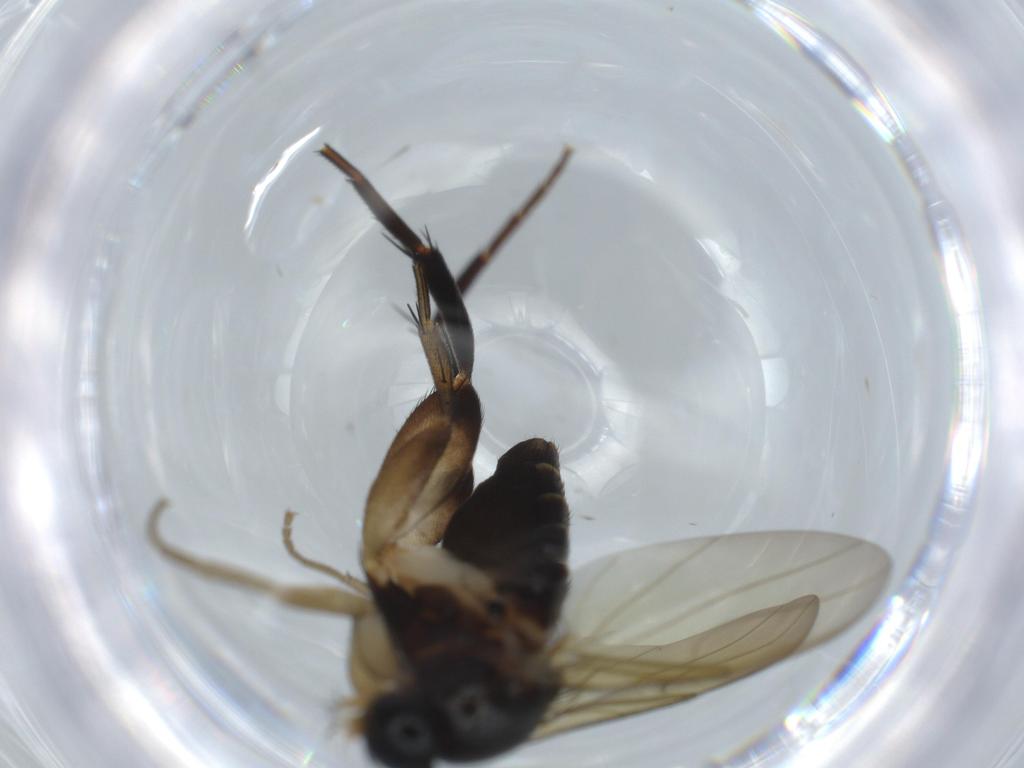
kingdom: Animalia
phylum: Arthropoda
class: Insecta
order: Diptera
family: Phoridae
